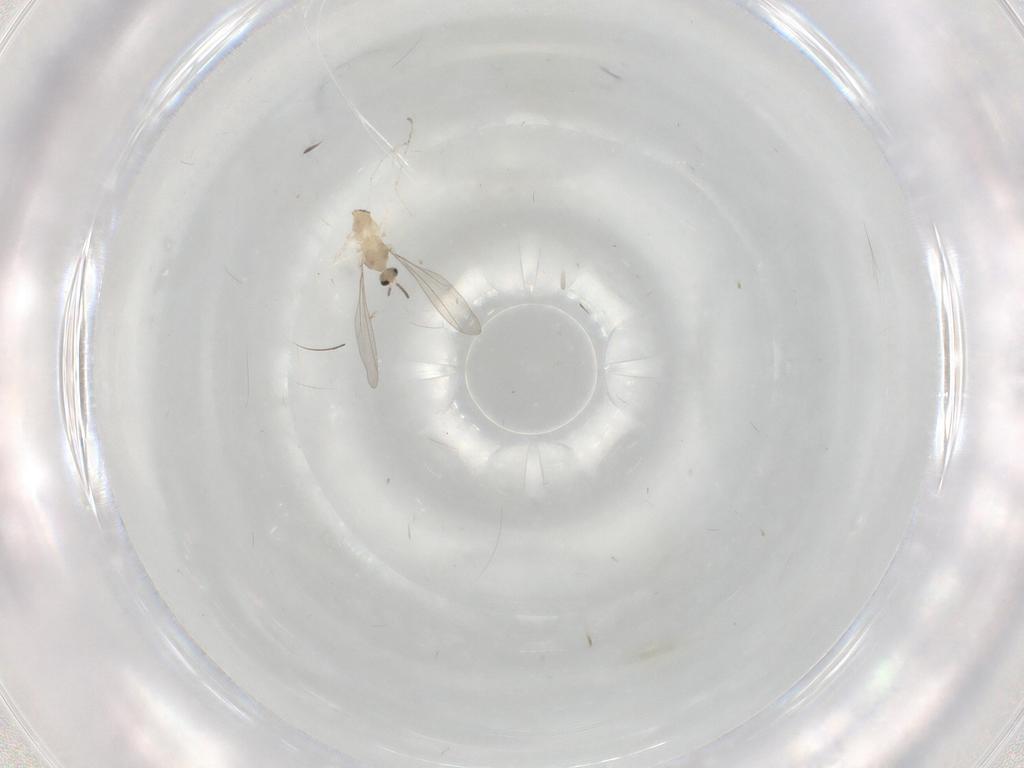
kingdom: Animalia
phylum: Arthropoda
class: Insecta
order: Diptera
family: Cecidomyiidae
